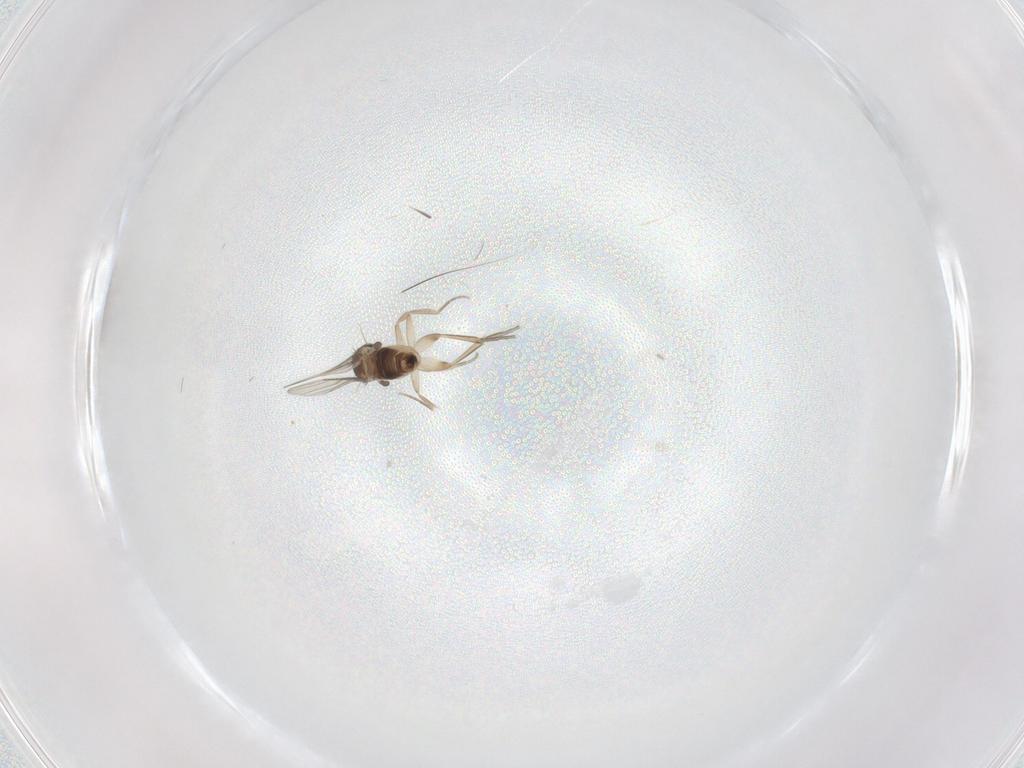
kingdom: Animalia
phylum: Arthropoda
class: Insecta
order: Diptera
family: Phoridae
